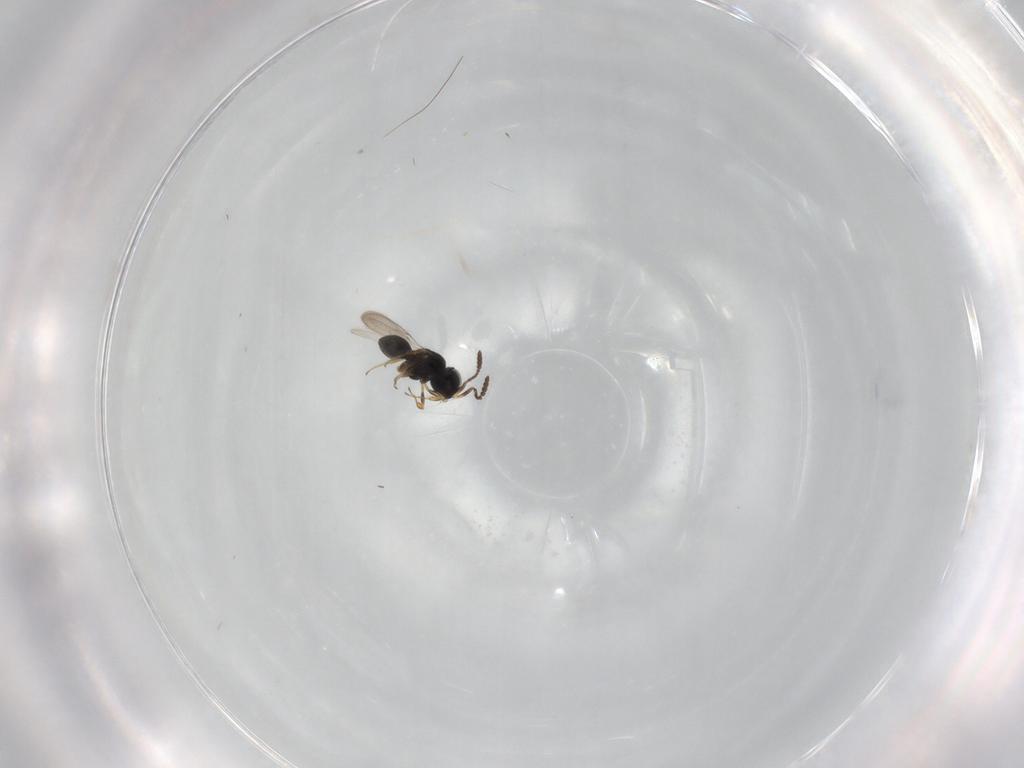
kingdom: Animalia
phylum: Arthropoda
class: Insecta
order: Hymenoptera
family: Scelionidae
